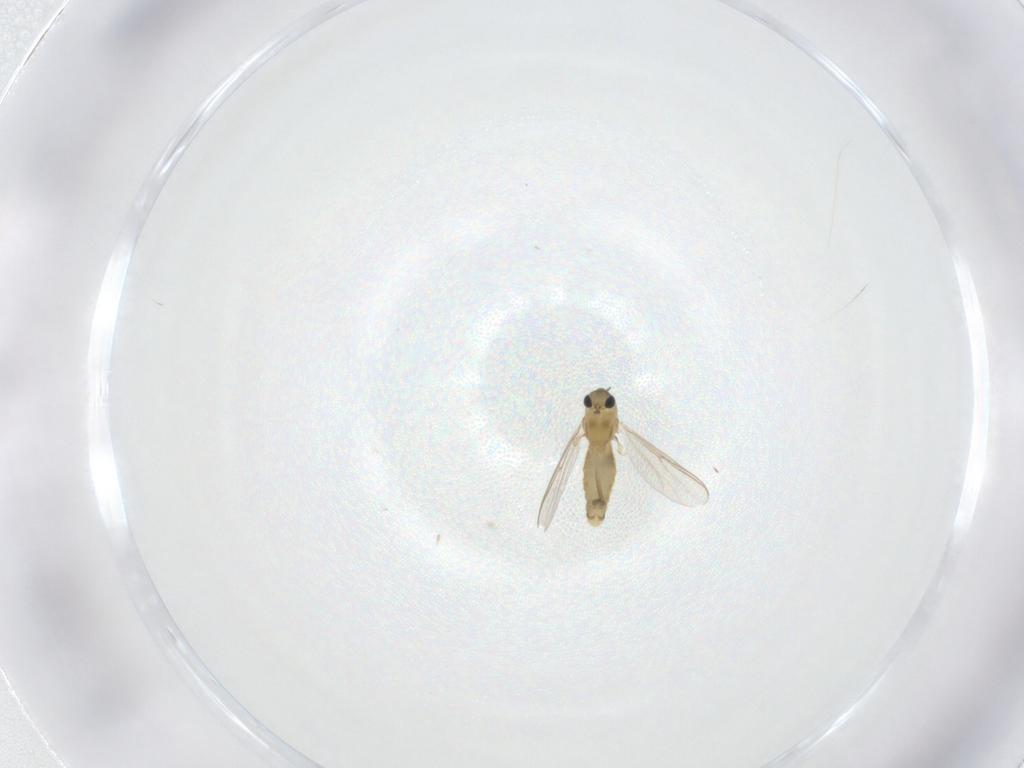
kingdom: Animalia
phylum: Arthropoda
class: Insecta
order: Diptera
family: Chironomidae
